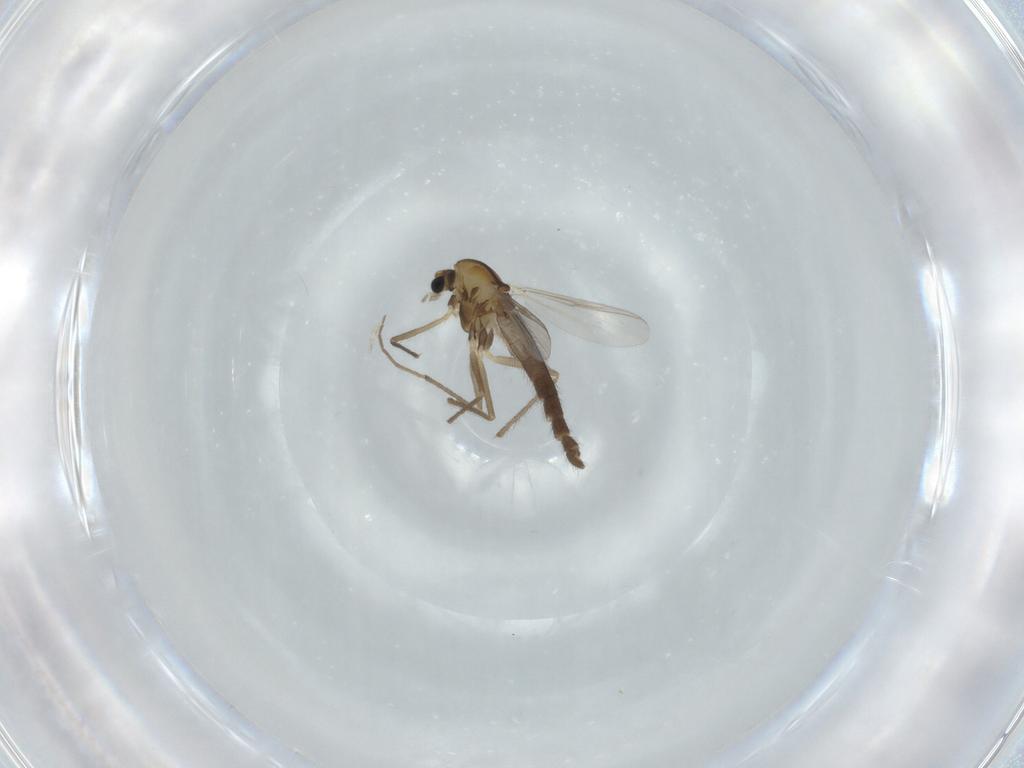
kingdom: Animalia
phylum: Arthropoda
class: Insecta
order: Diptera
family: Chironomidae
